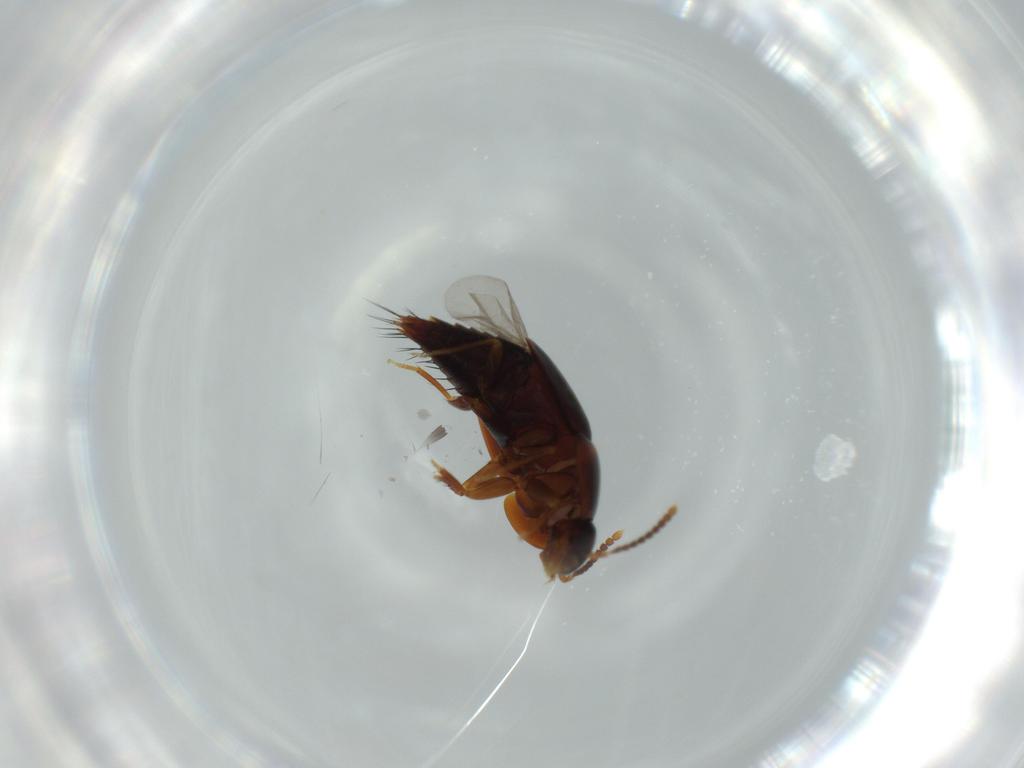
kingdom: Animalia
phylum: Arthropoda
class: Insecta
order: Coleoptera
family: Staphylinidae
